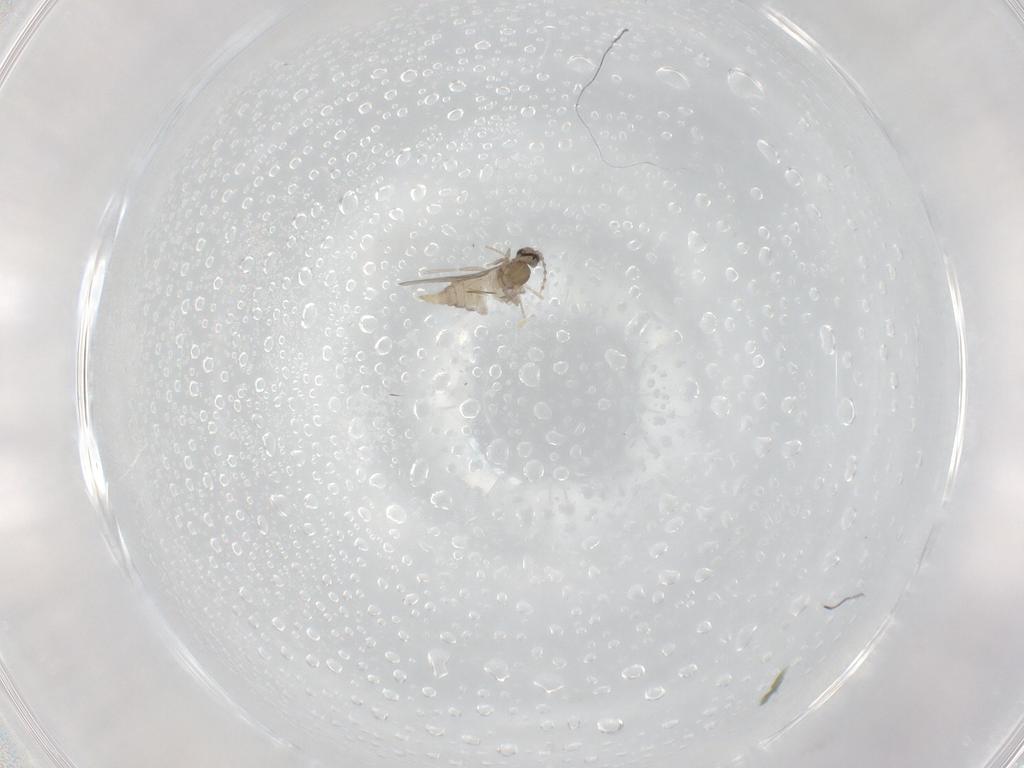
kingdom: Animalia
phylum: Arthropoda
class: Insecta
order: Diptera
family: Cecidomyiidae
